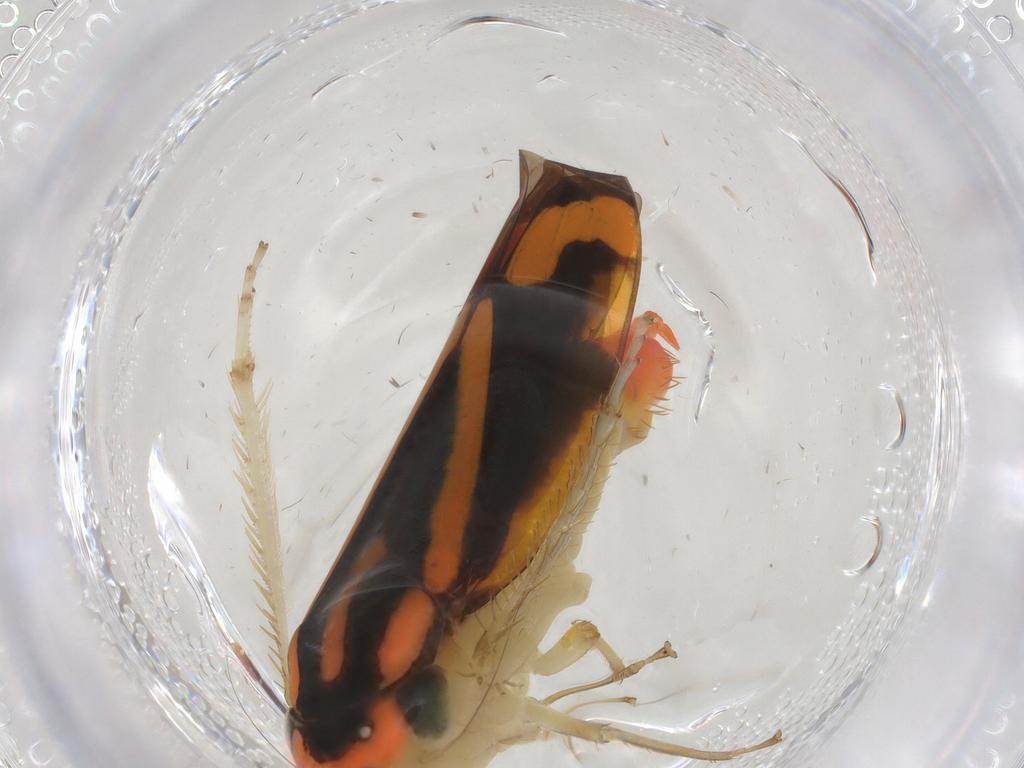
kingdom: Animalia
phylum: Arthropoda
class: Insecta
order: Hemiptera
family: Cicadellidae
